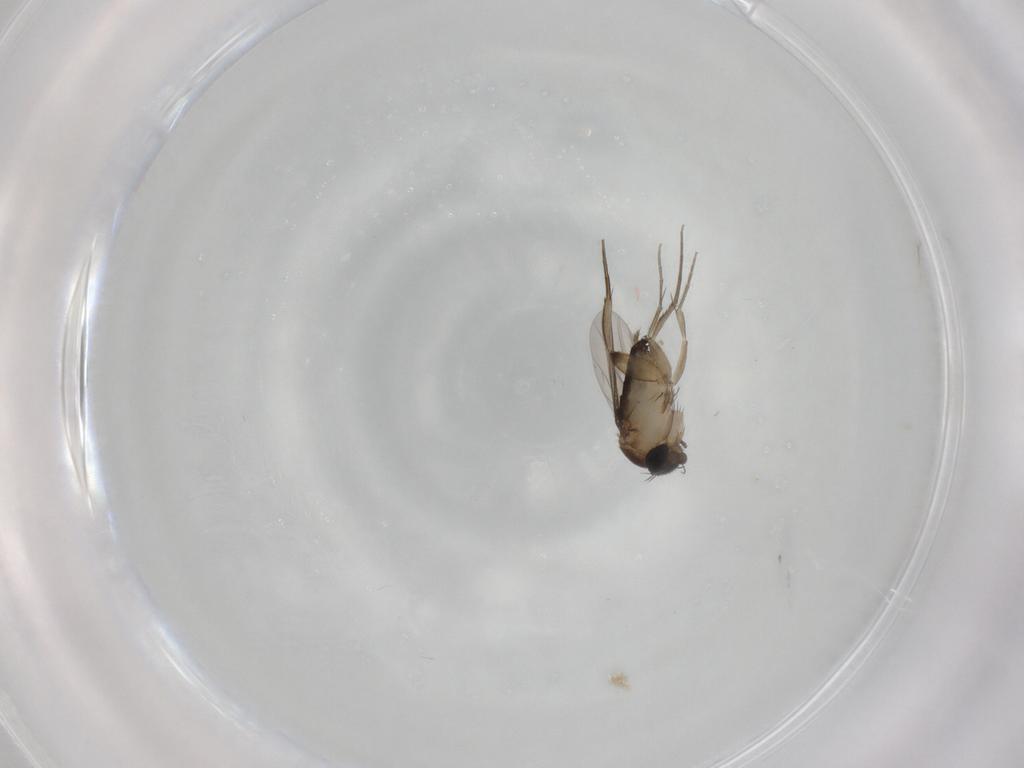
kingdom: Animalia
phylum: Arthropoda
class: Insecta
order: Diptera
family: Phoridae
